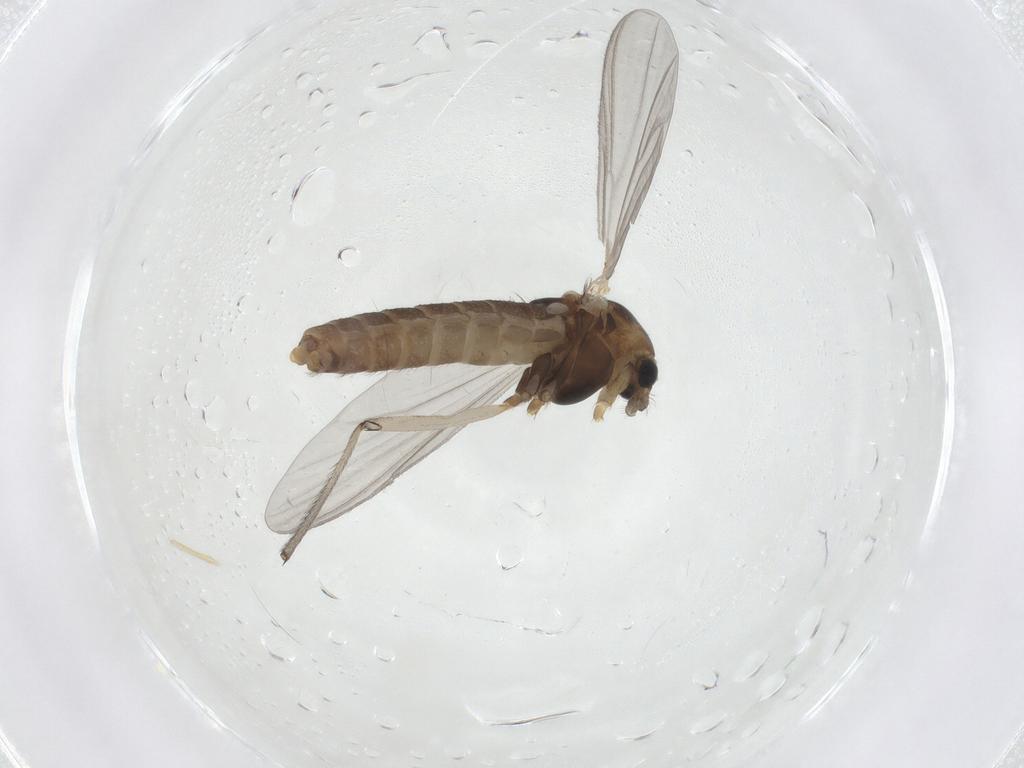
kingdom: Animalia
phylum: Arthropoda
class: Insecta
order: Diptera
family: Chironomidae
